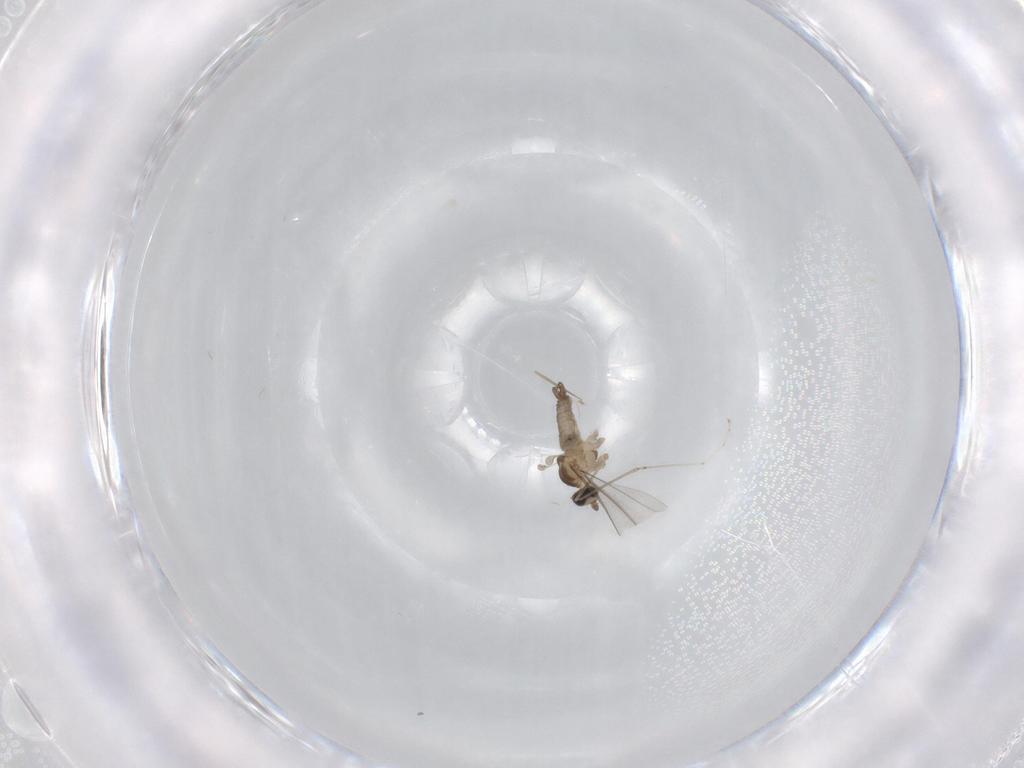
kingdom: Animalia
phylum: Arthropoda
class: Insecta
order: Diptera
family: Cecidomyiidae
